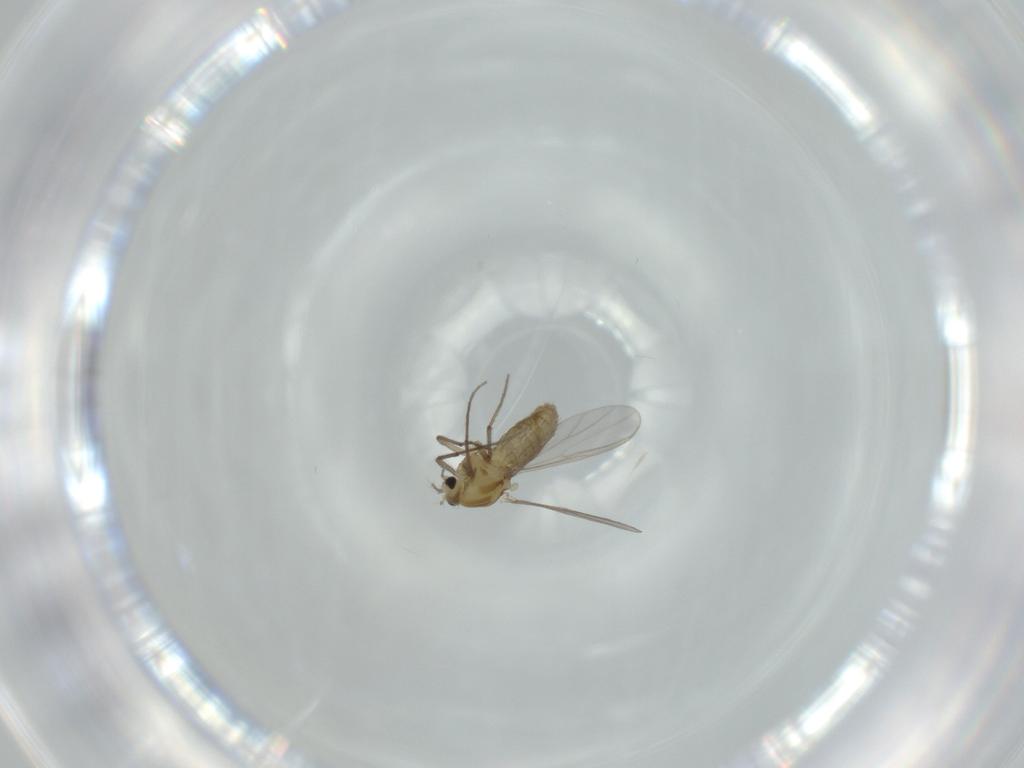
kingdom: Animalia
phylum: Arthropoda
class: Insecta
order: Diptera
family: Chironomidae
